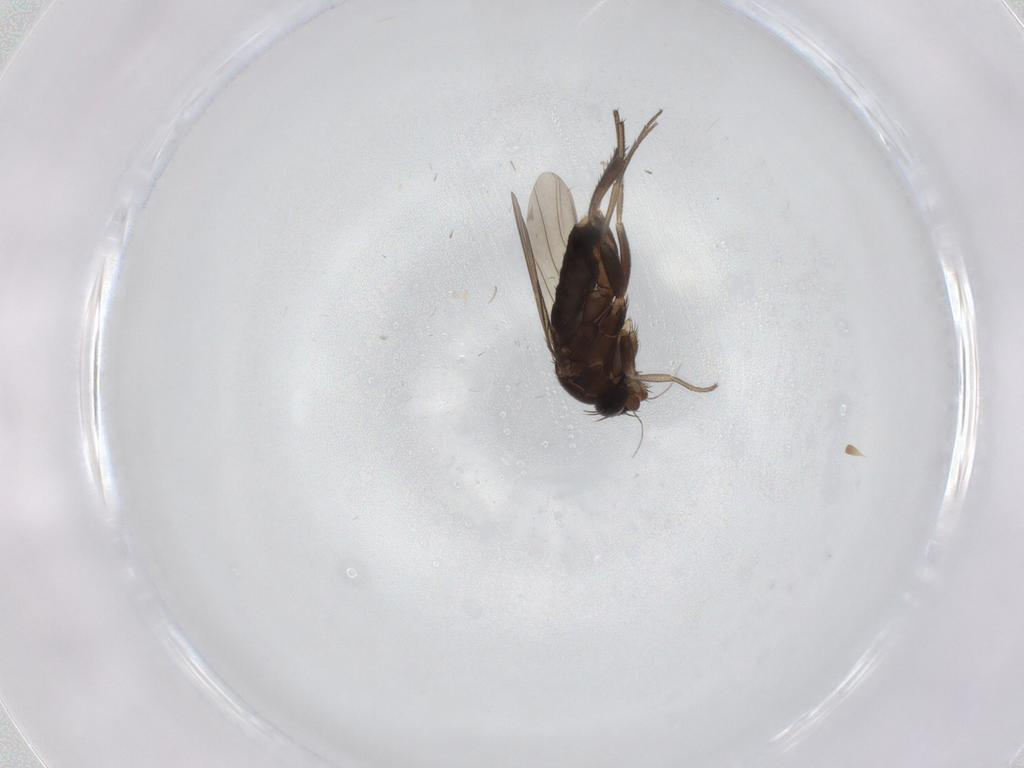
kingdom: Animalia
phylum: Arthropoda
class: Insecta
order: Diptera
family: Phoridae
